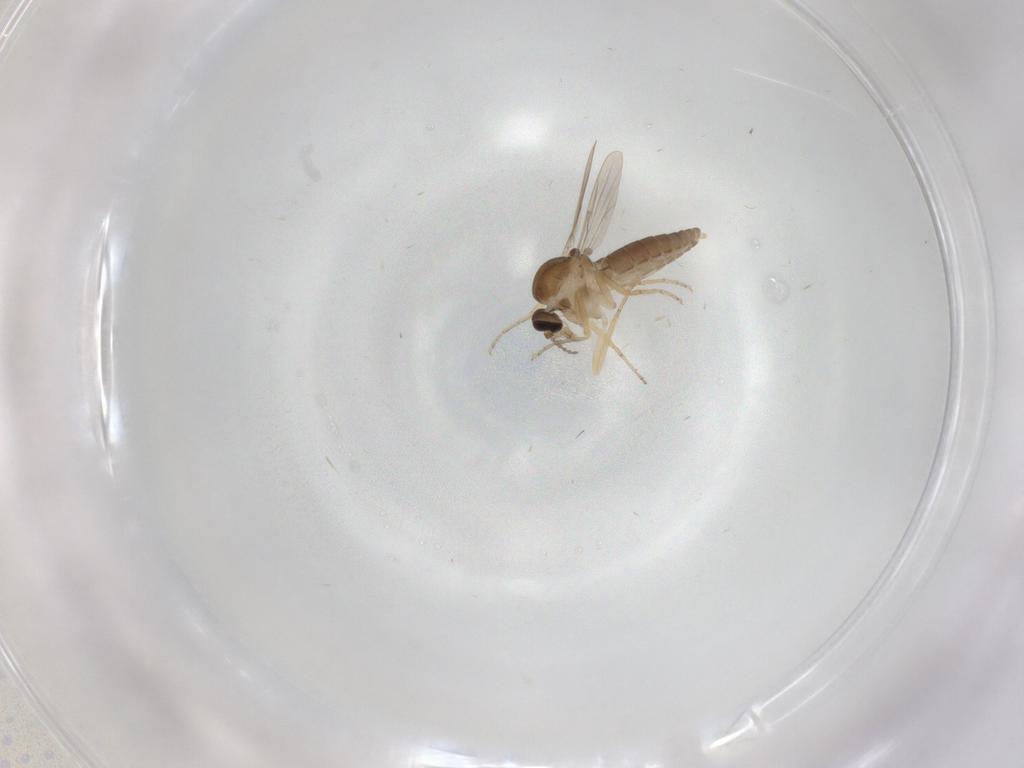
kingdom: Animalia
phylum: Arthropoda
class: Insecta
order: Diptera
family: Ceratopogonidae
